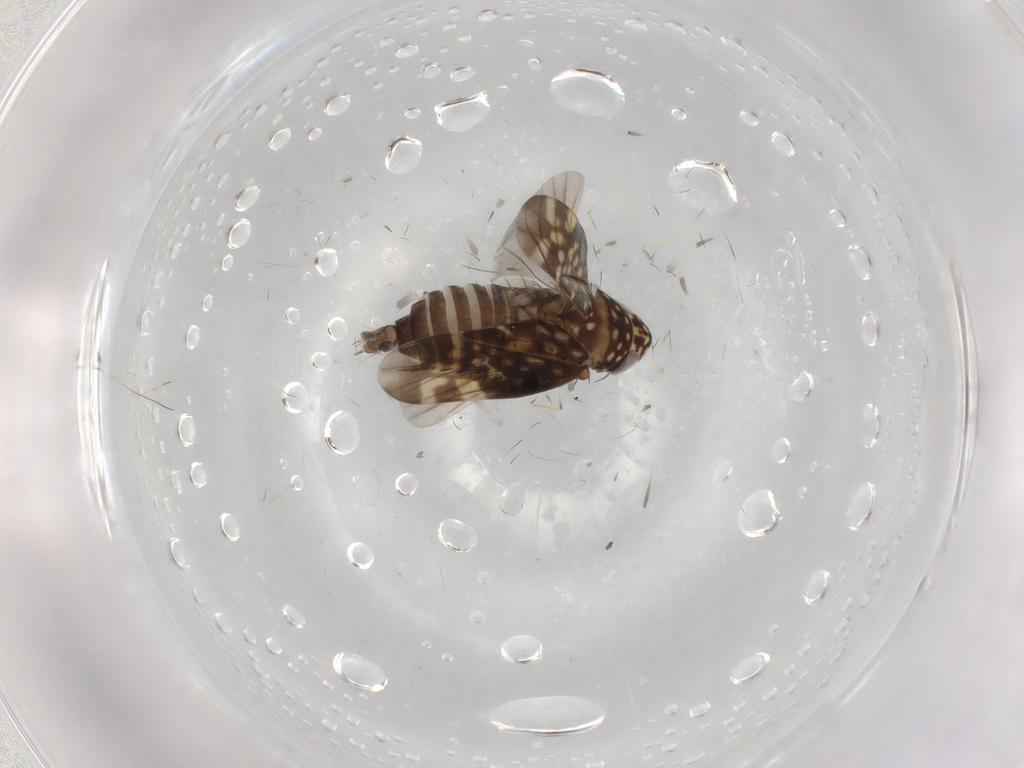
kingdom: Animalia
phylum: Arthropoda
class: Insecta
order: Hemiptera
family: Cicadellidae
